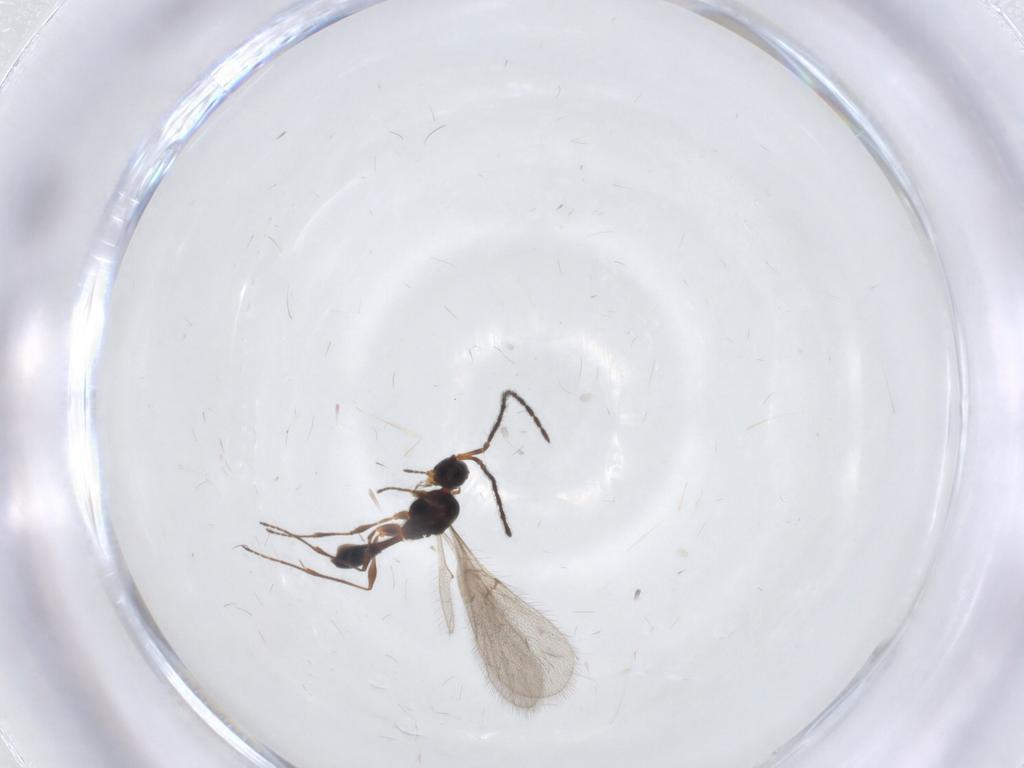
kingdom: Animalia
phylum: Arthropoda
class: Insecta
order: Hymenoptera
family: Diapriidae
